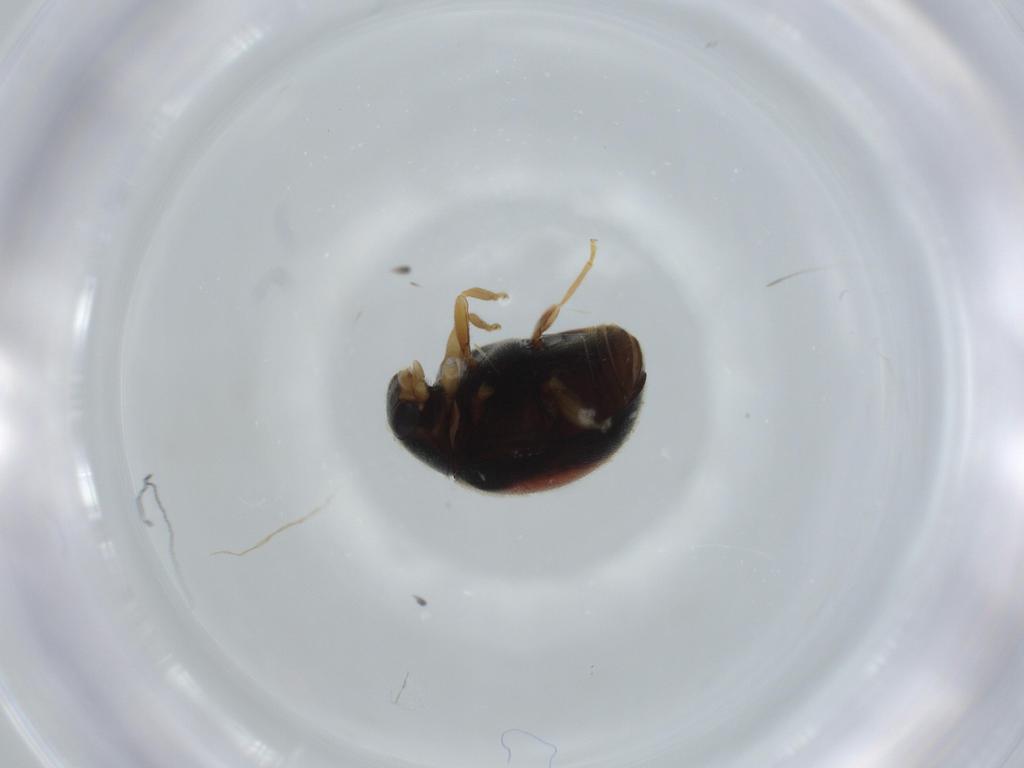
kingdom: Animalia
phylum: Arthropoda
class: Insecta
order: Coleoptera
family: Coccinellidae
